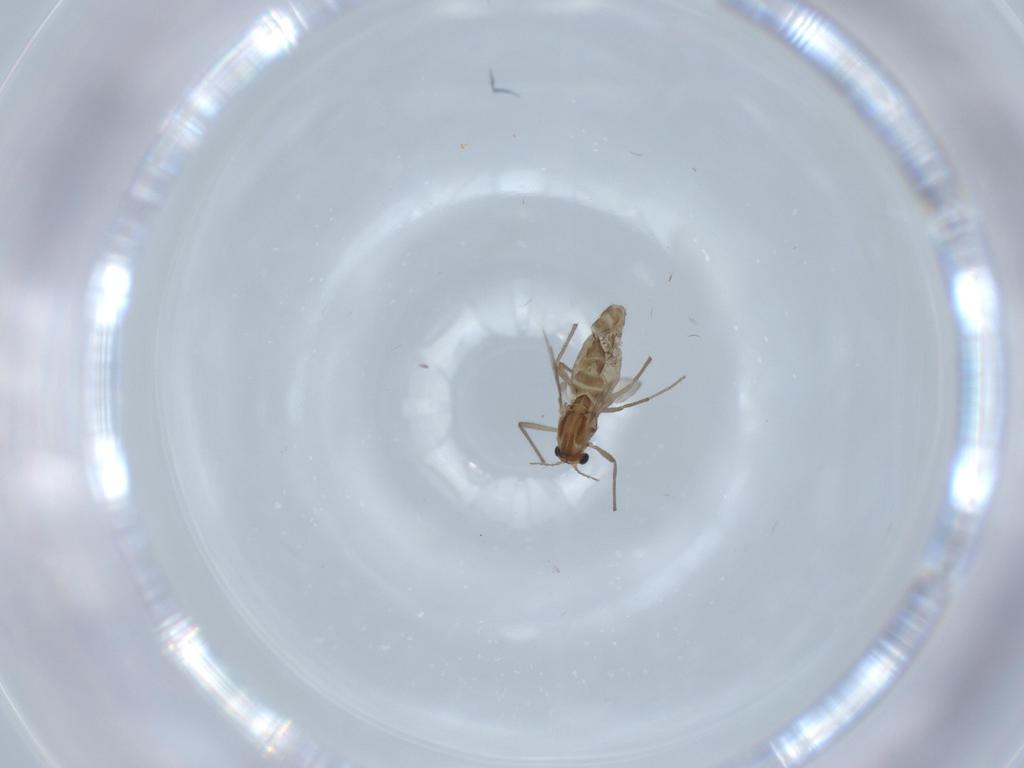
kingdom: Animalia
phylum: Arthropoda
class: Insecta
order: Diptera
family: Chironomidae
